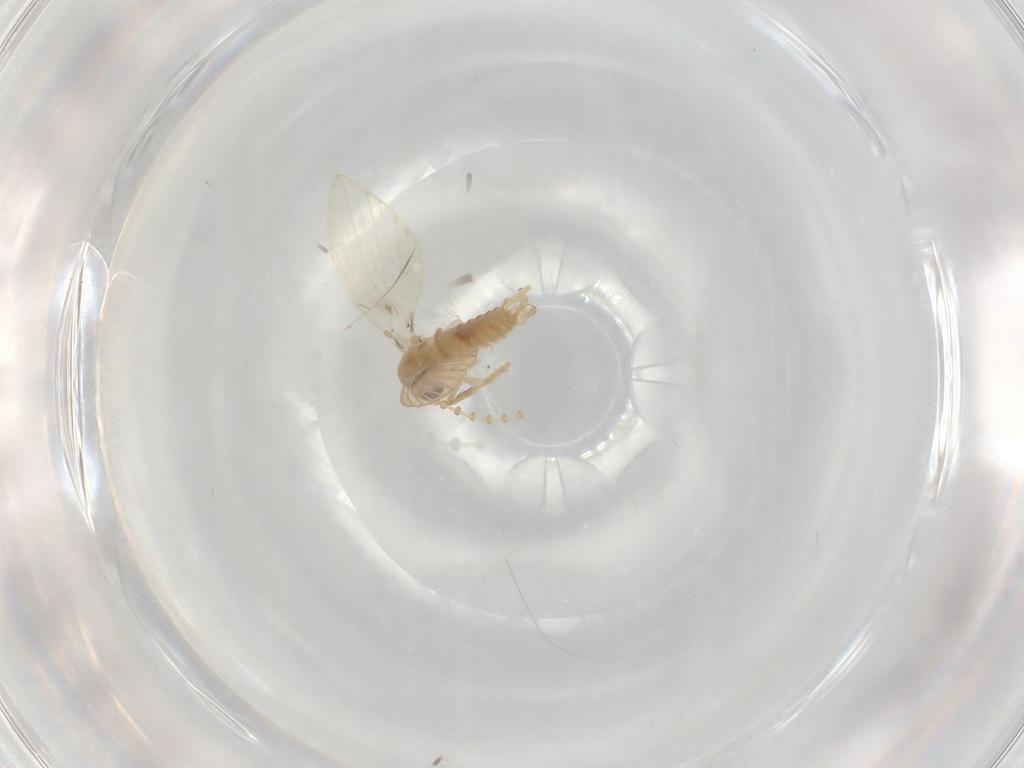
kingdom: Animalia
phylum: Arthropoda
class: Insecta
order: Diptera
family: Psychodidae
